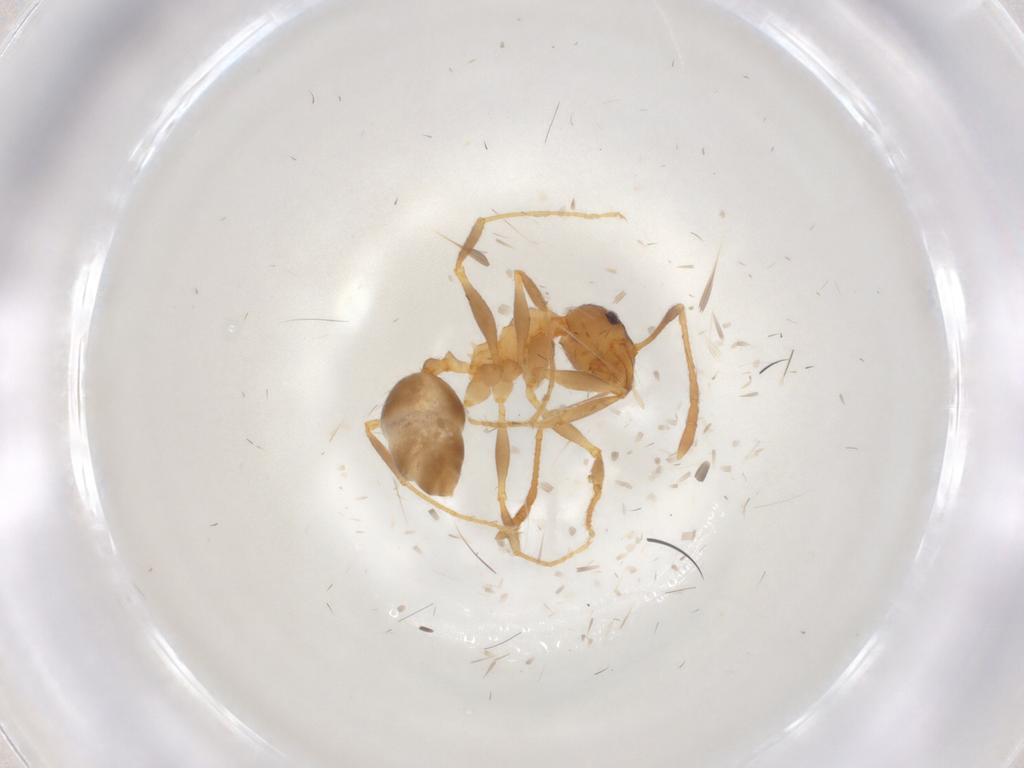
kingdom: Animalia
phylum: Arthropoda
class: Insecta
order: Hymenoptera
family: Formicidae
